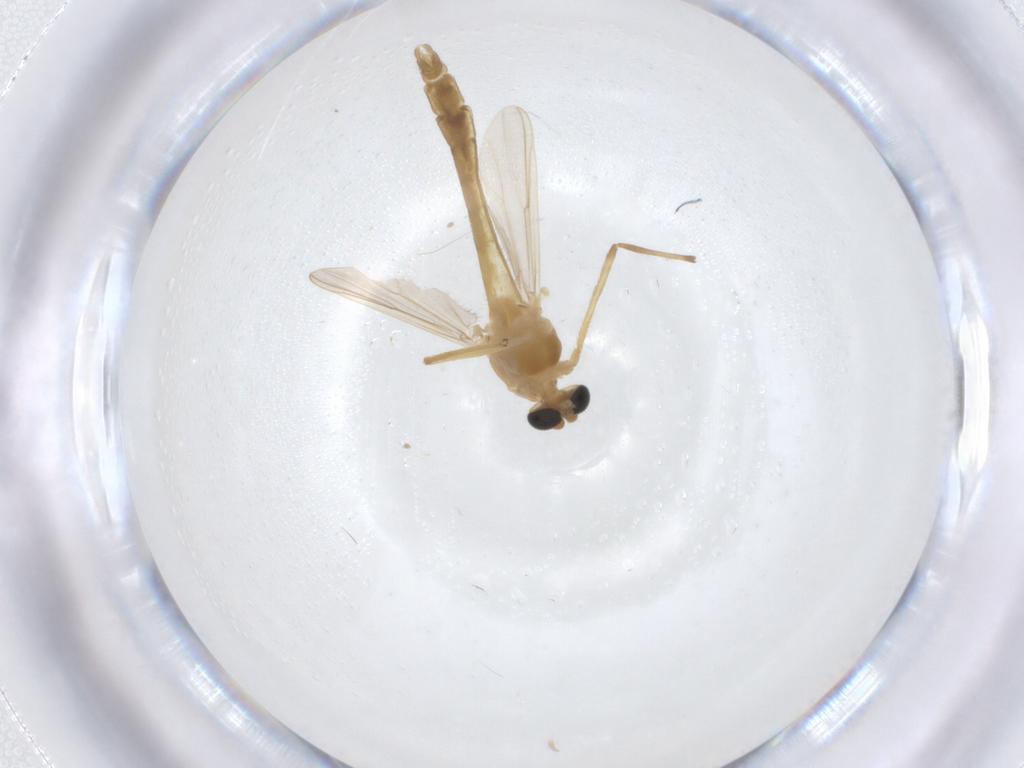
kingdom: Animalia
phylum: Arthropoda
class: Insecta
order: Diptera
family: Chironomidae
